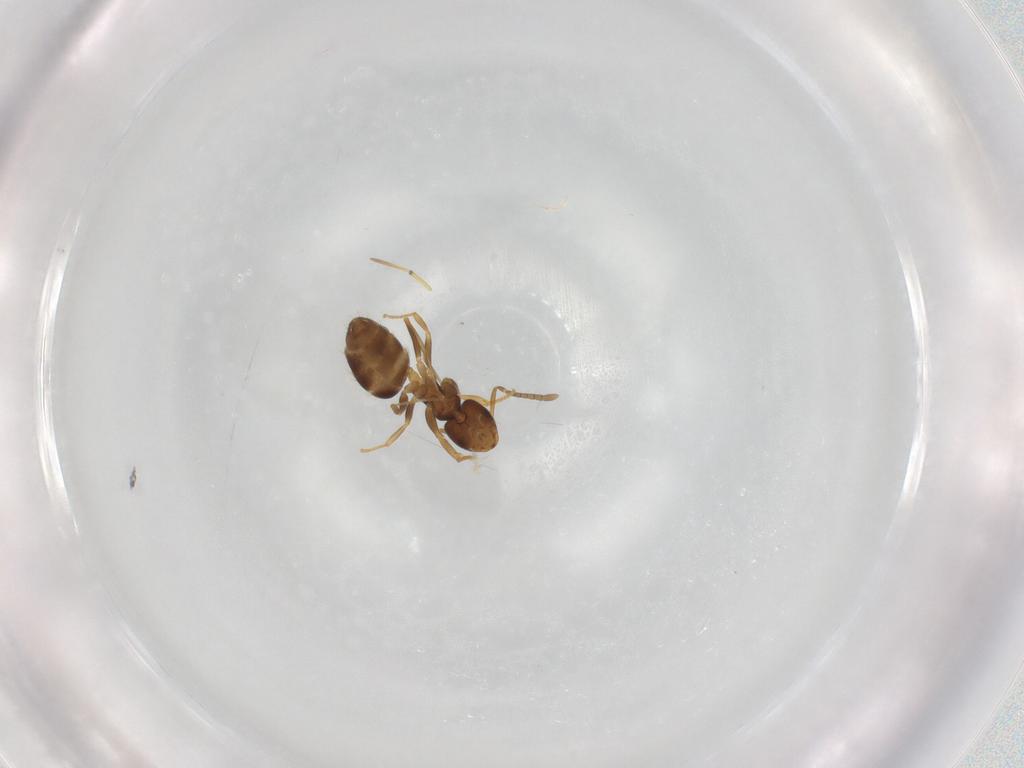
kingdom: Animalia
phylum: Arthropoda
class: Insecta
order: Hymenoptera
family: Formicidae
